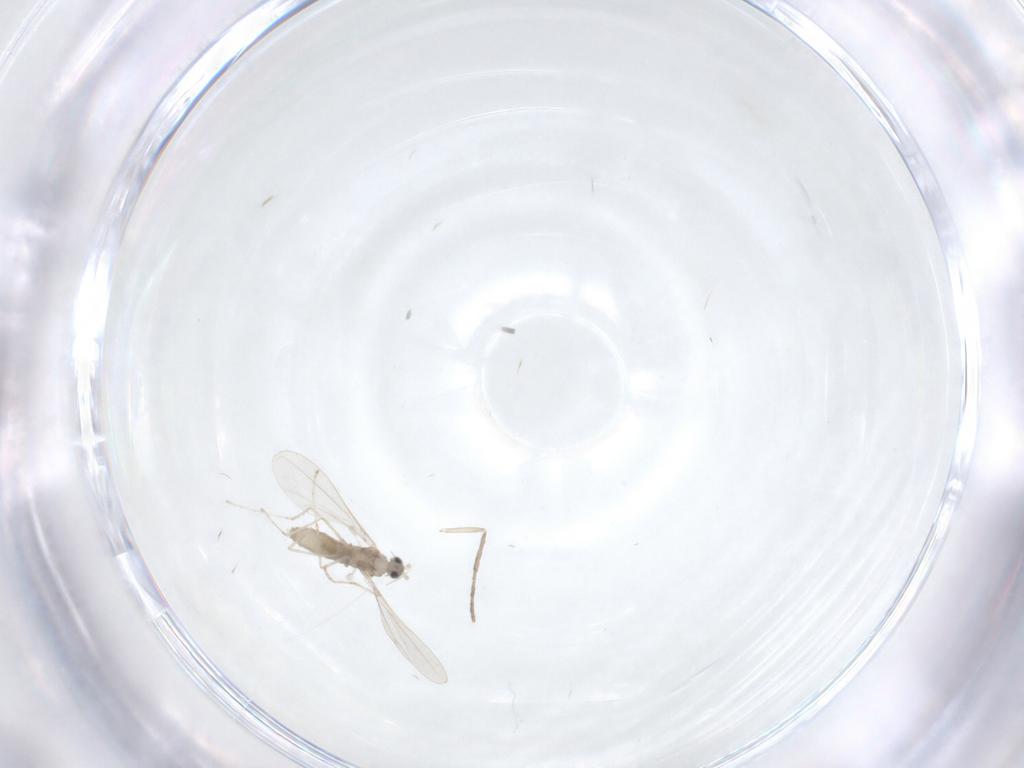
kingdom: Animalia
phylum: Arthropoda
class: Insecta
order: Diptera
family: Cecidomyiidae
